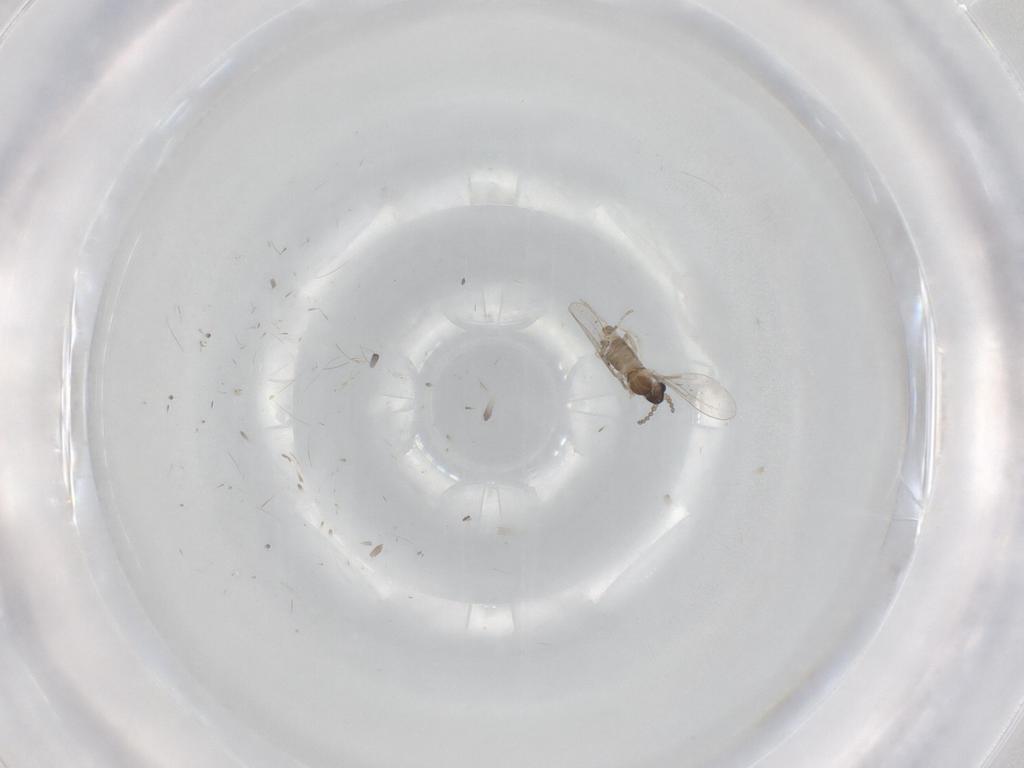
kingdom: Animalia
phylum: Arthropoda
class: Insecta
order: Diptera
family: Cecidomyiidae
